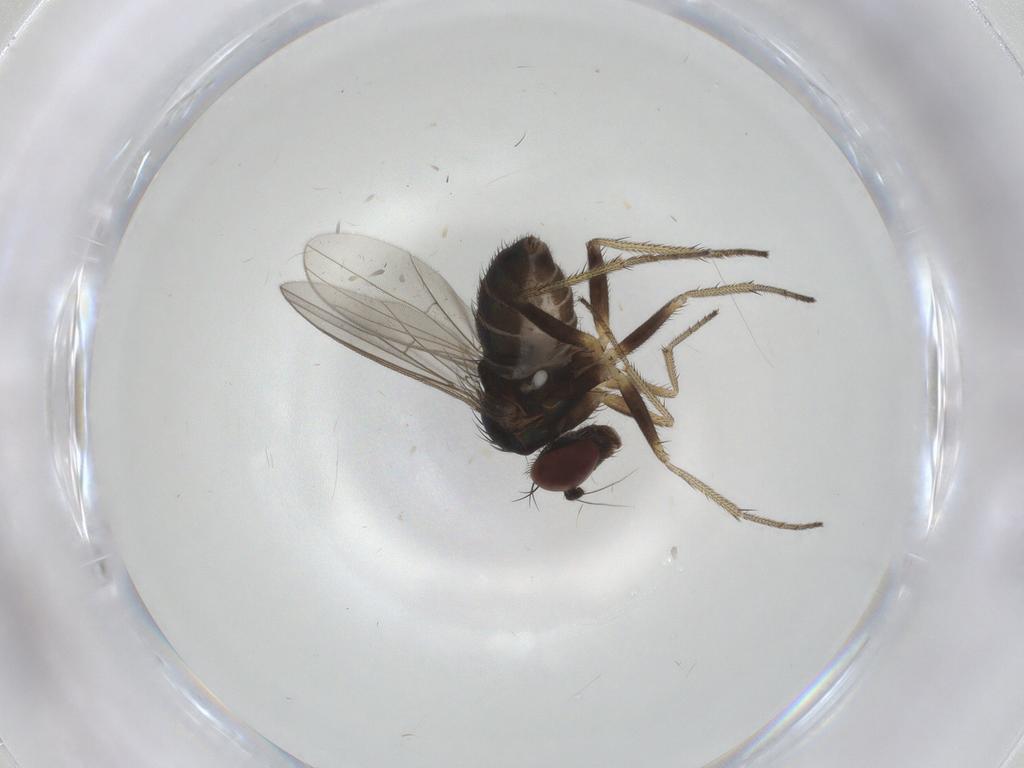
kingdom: Animalia
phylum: Arthropoda
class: Insecta
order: Diptera
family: Dolichopodidae
